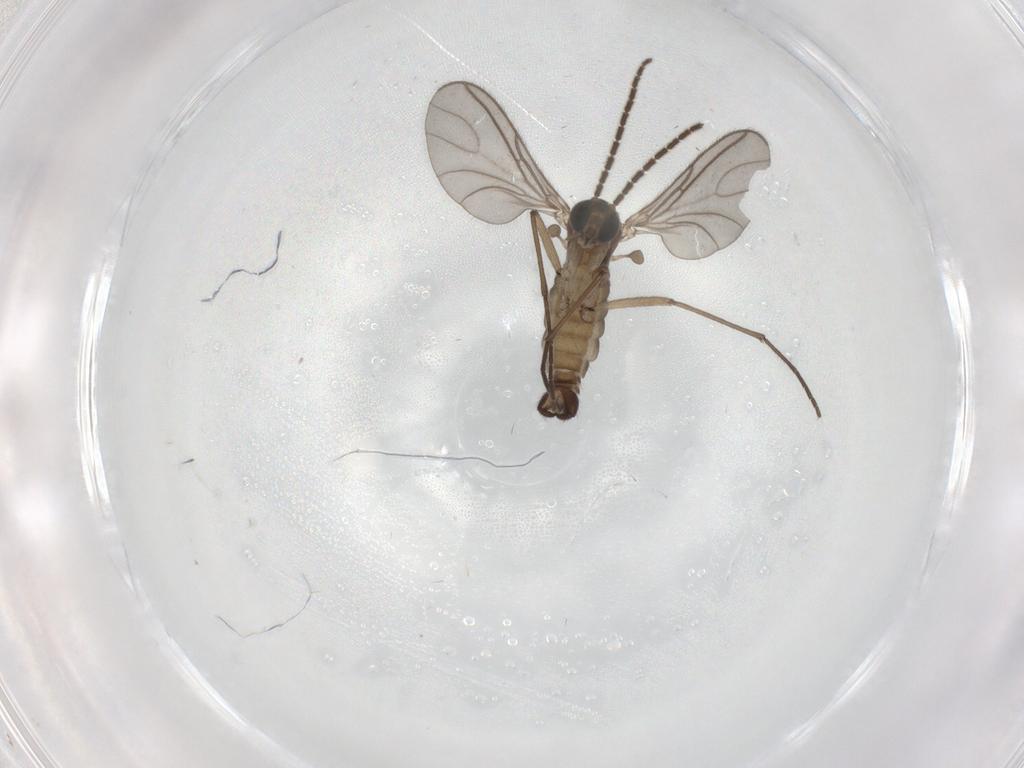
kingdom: Animalia
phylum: Arthropoda
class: Insecta
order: Diptera
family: Sciaridae
